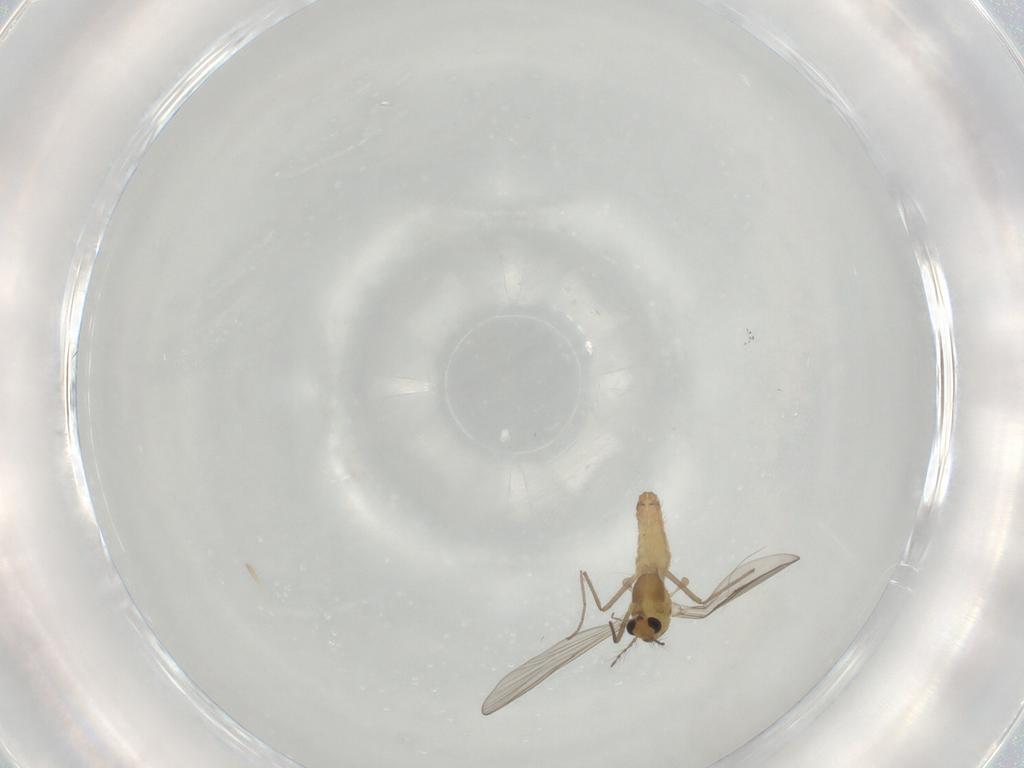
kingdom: Animalia
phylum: Arthropoda
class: Insecta
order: Diptera
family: Chironomidae
